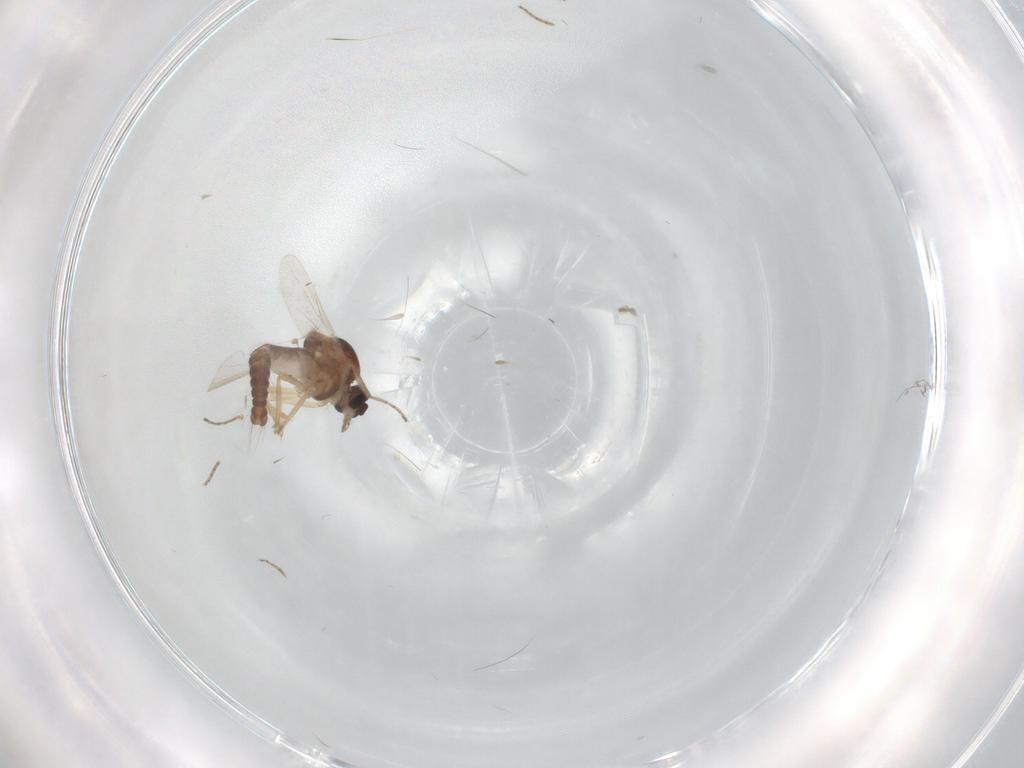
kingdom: Animalia
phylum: Arthropoda
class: Insecta
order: Diptera
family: Ceratopogonidae
